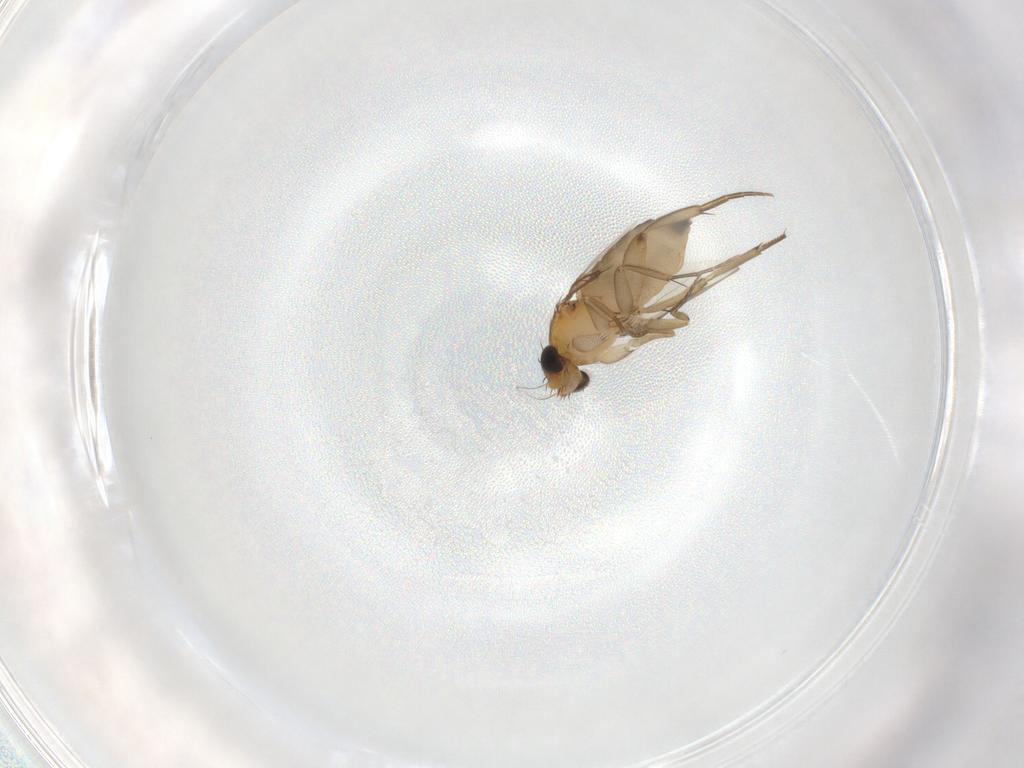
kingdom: Animalia
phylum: Arthropoda
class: Insecta
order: Diptera
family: Phoridae
